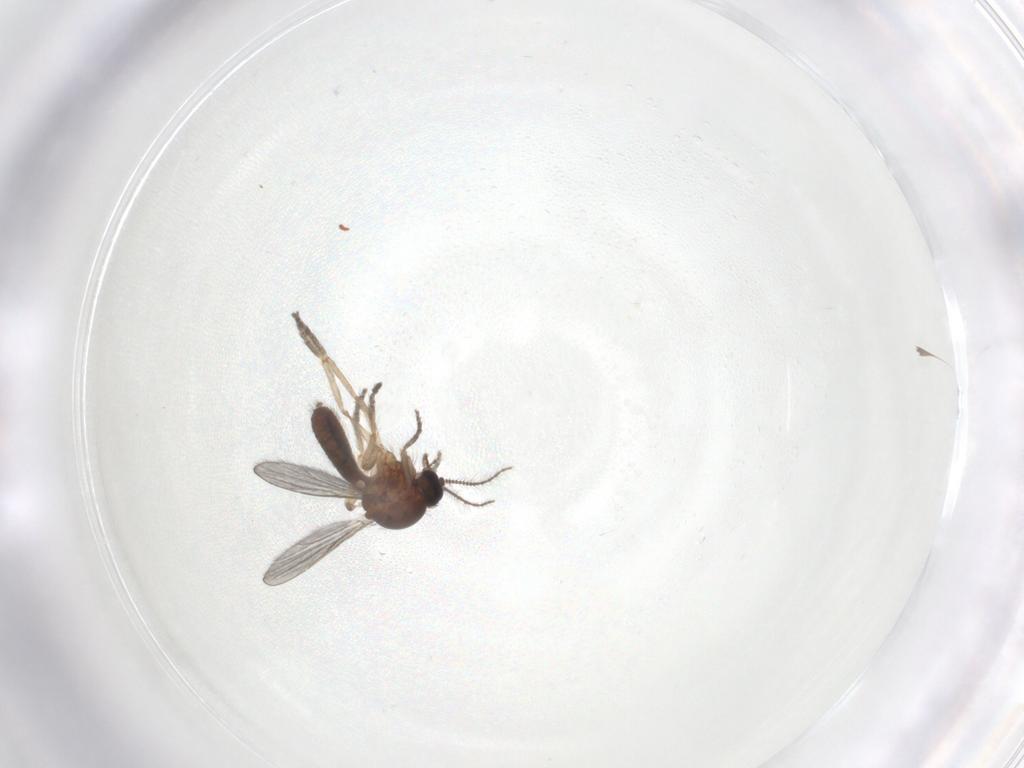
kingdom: Animalia
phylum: Arthropoda
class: Insecta
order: Diptera
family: Ceratopogonidae
